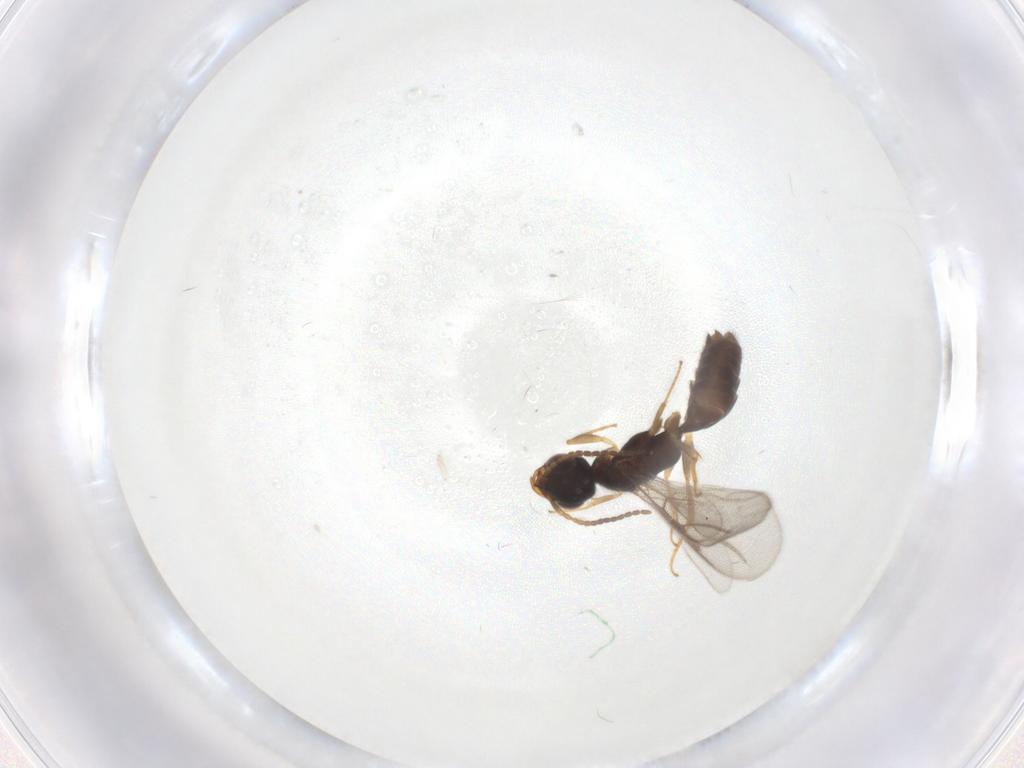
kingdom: Animalia
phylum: Arthropoda
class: Insecta
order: Hymenoptera
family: Bethylidae
